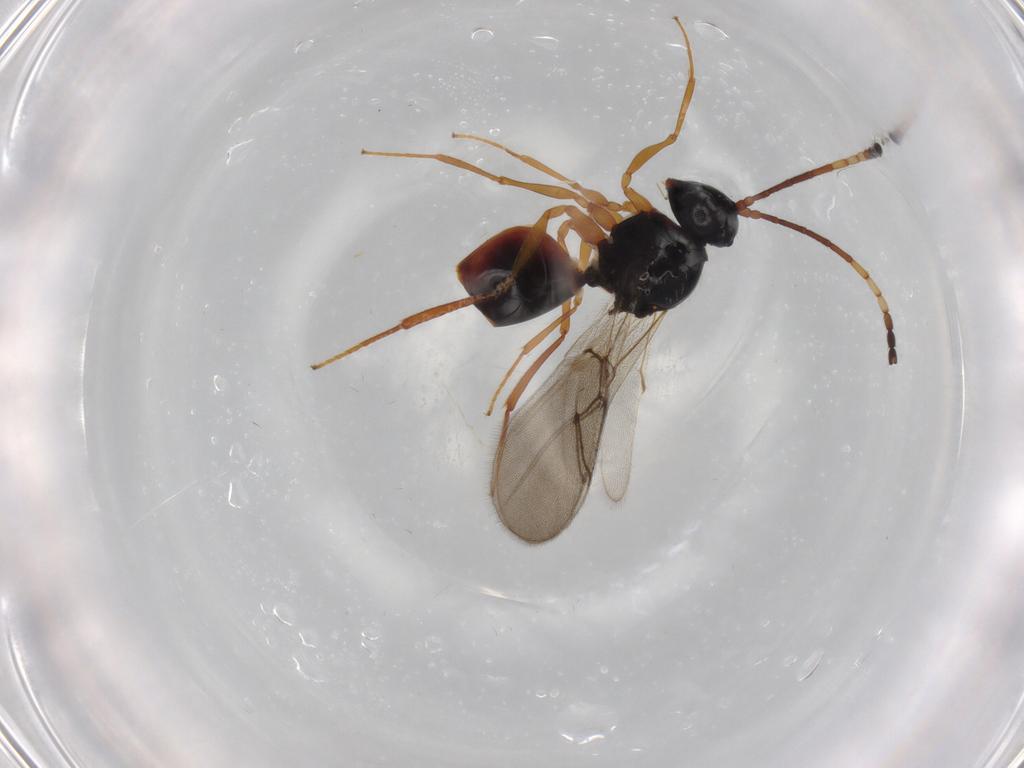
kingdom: Animalia
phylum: Arthropoda
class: Insecta
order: Hymenoptera
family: Figitidae
